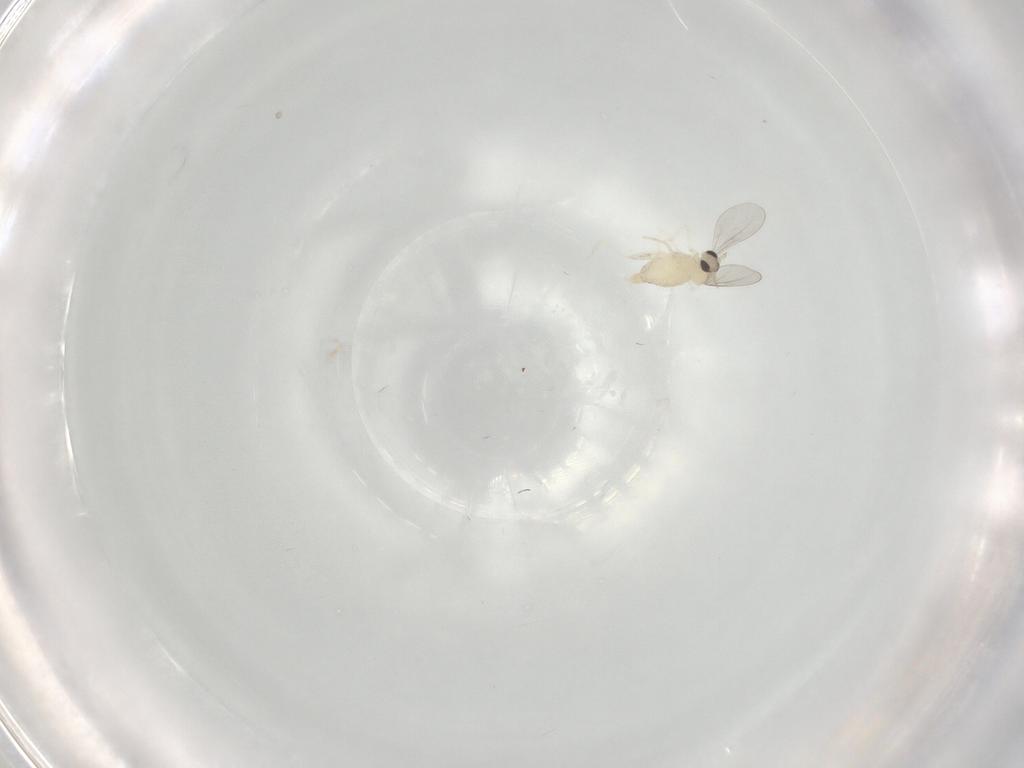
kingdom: Animalia
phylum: Arthropoda
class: Insecta
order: Diptera
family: Cecidomyiidae
